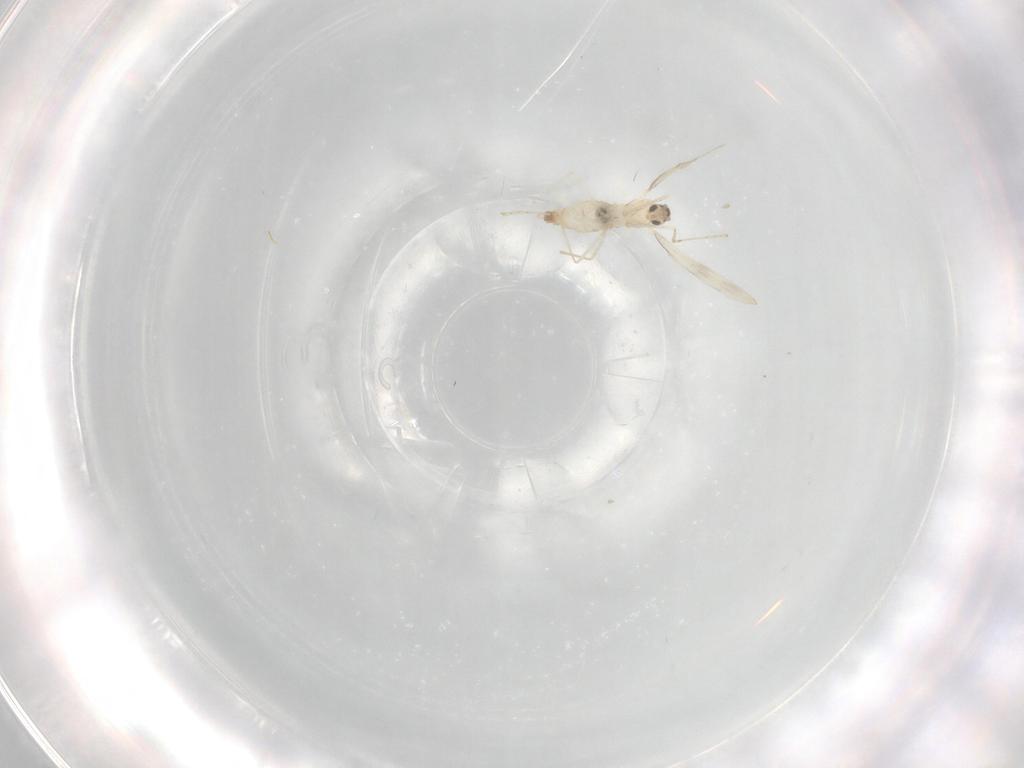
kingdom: Animalia
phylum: Arthropoda
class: Insecta
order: Diptera
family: Cecidomyiidae
